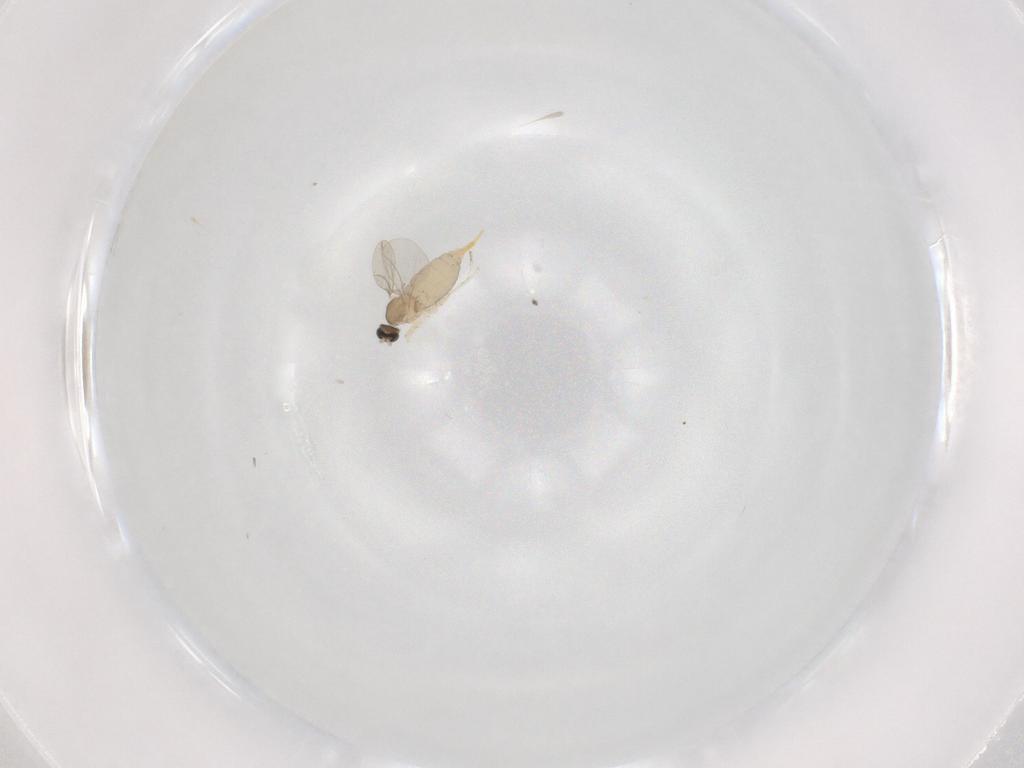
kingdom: Animalia
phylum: Arthropoda
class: Insecta
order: Diptera
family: Cecidomyiidae
